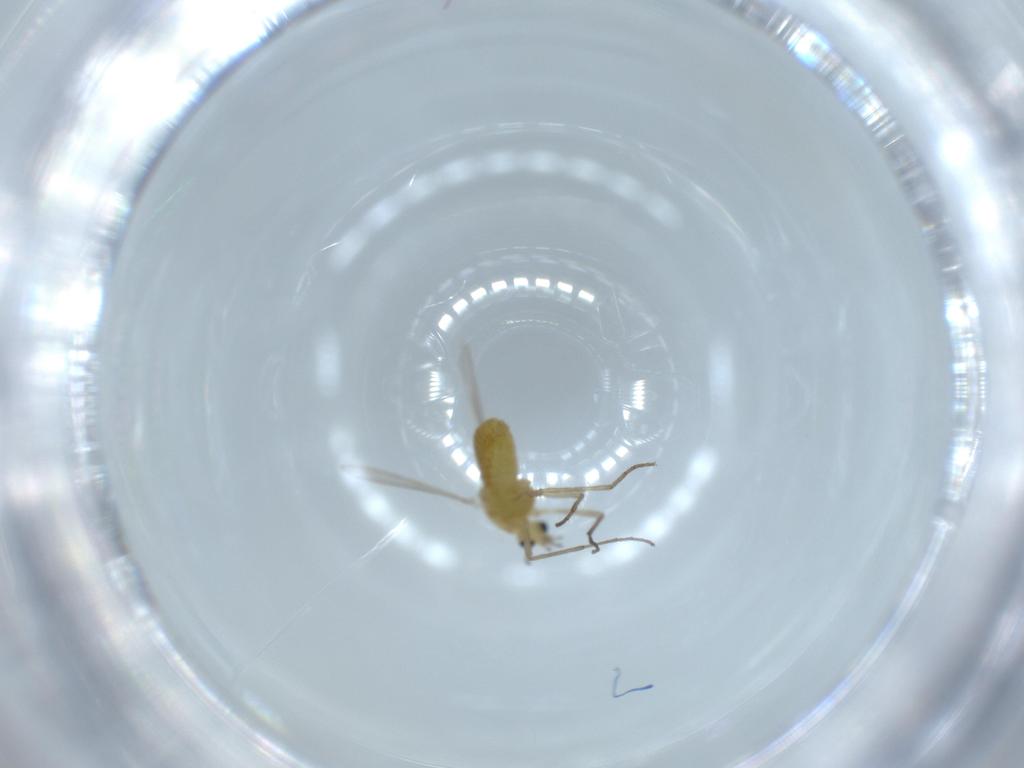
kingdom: Animalia
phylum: Arthropoda
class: Insecta
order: Diptera
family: Chironomidae
